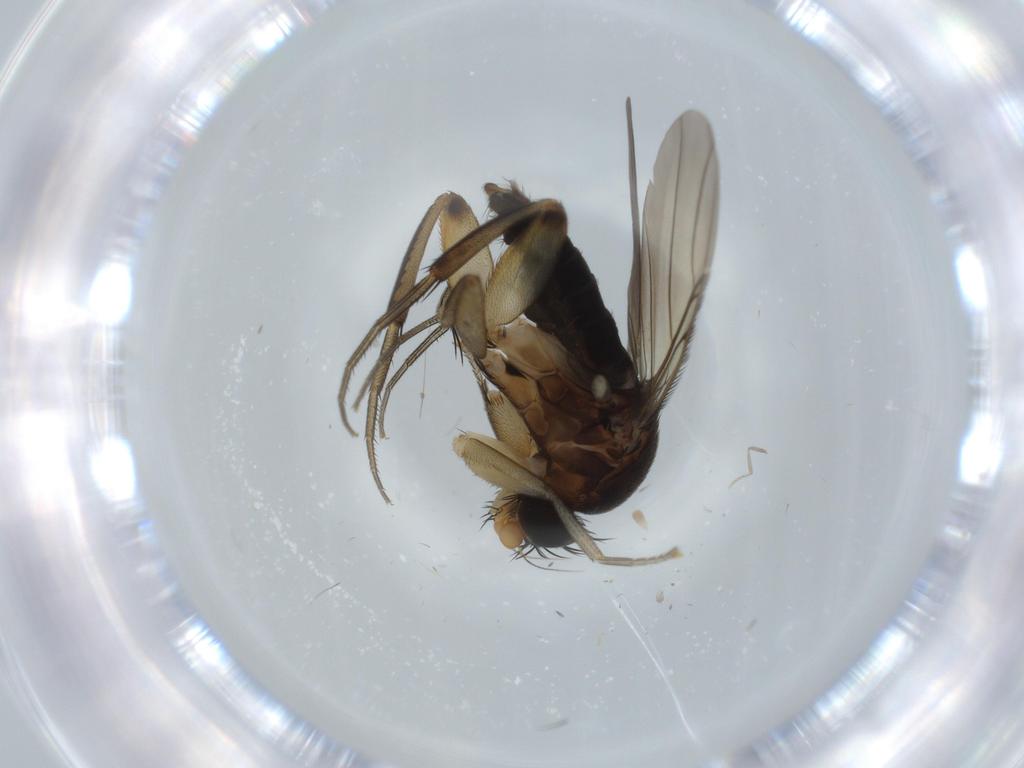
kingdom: Animalia
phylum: Arthropoda
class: Insecta
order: Diptera
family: Phoridae
